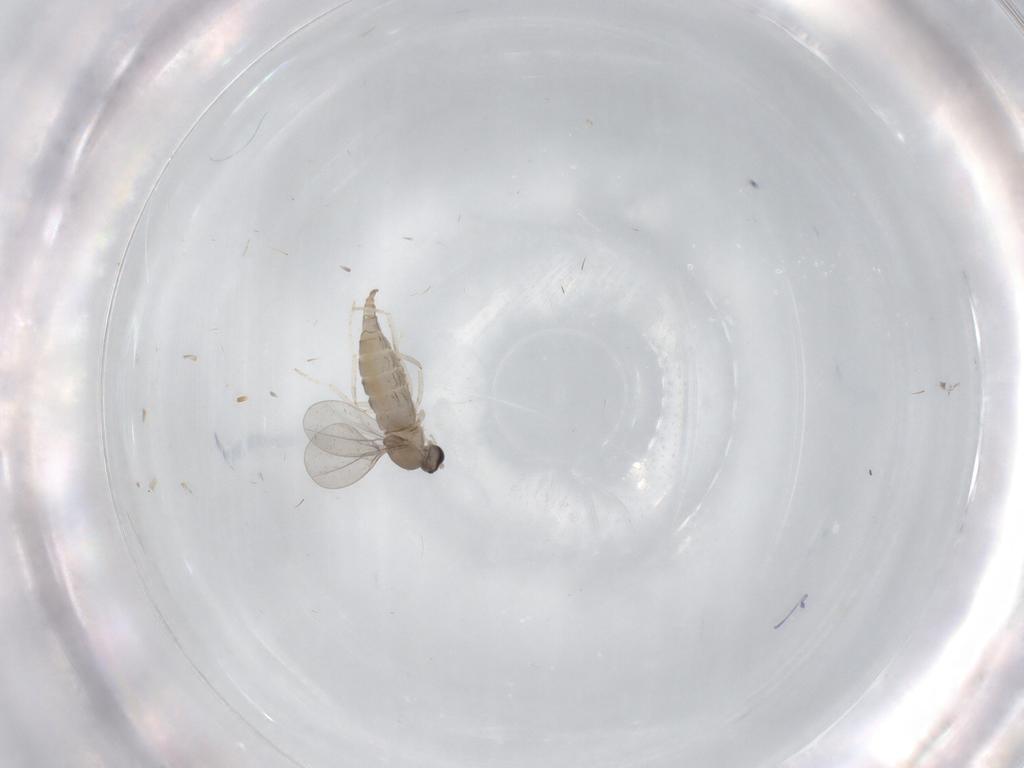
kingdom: Animalia
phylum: Arthropoda
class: Insecta
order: Diptera
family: Cecidomyiidae
